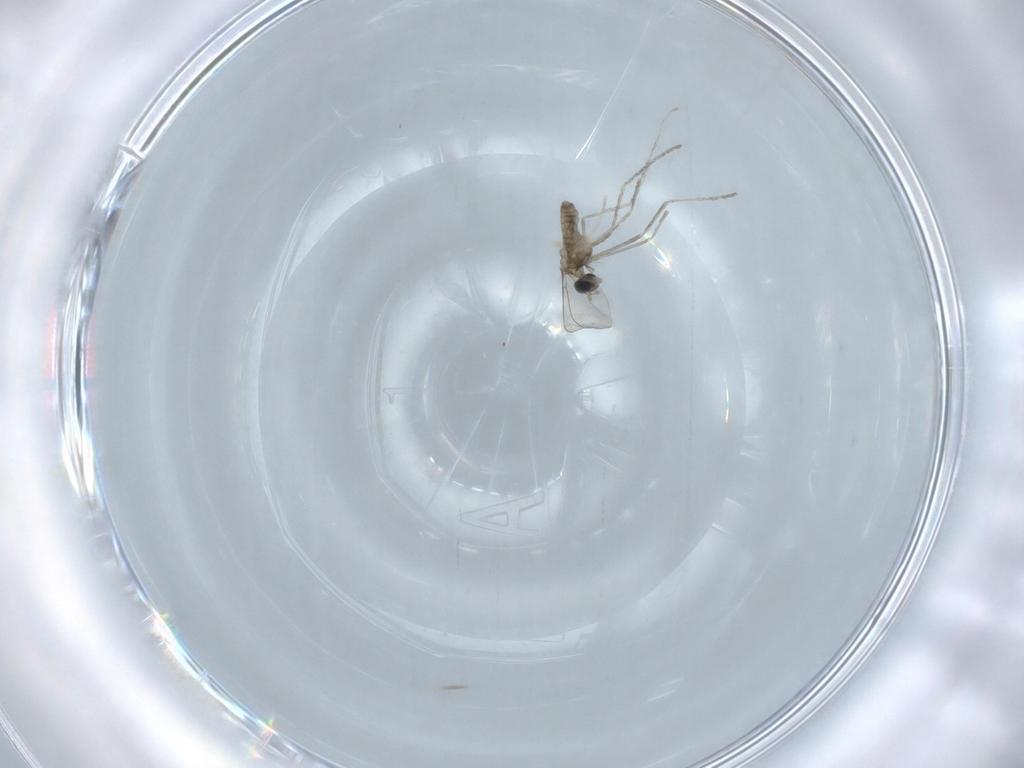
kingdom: Animalia
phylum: Arthropoda
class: Insecta
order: Diptera
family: Cecidomyiidae
